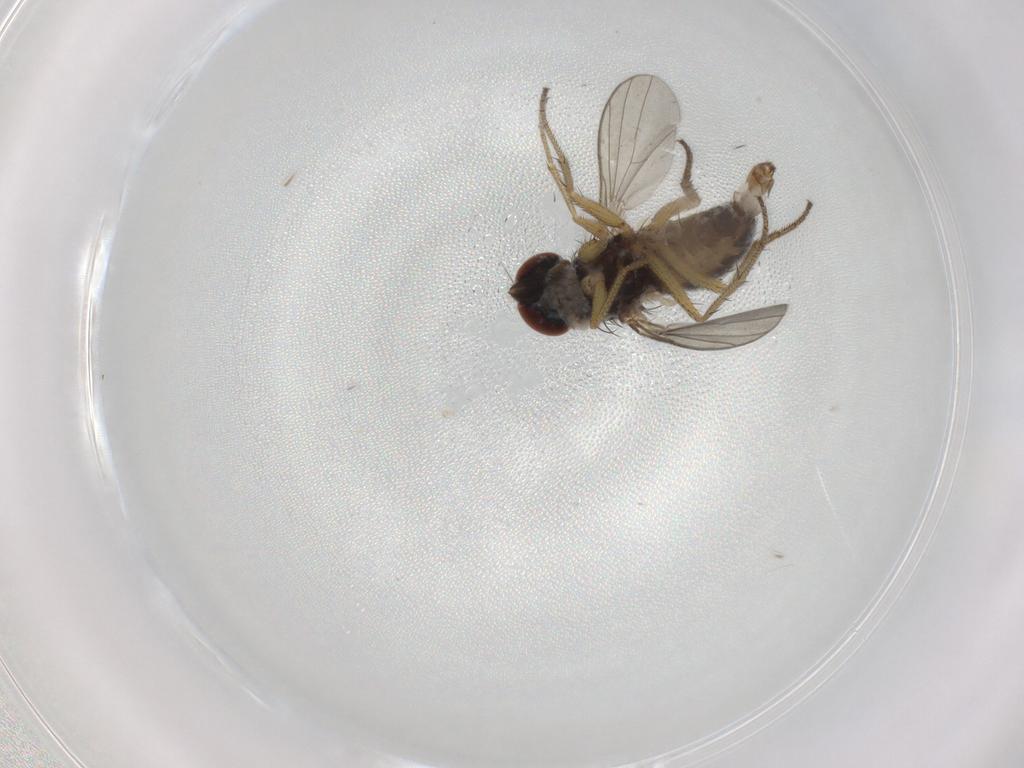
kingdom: Animalia
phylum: Arthropoda
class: Insecta
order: Diptera
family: Dolichopodidae
